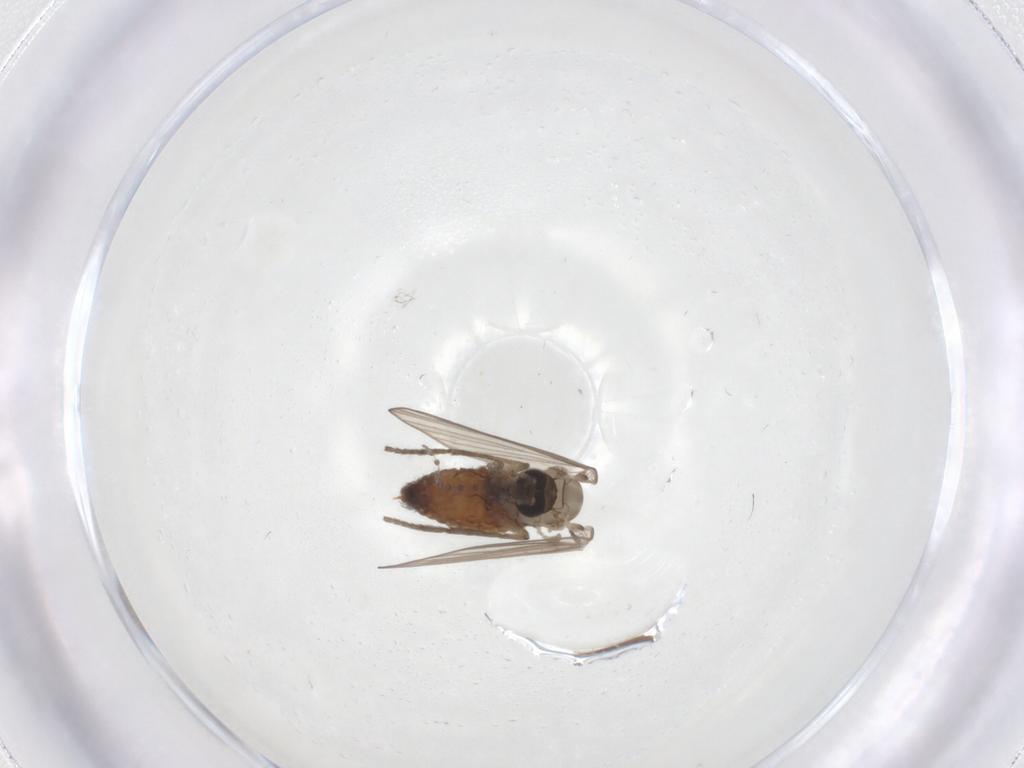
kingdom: Animalia
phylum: Arthropoda
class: Insecta
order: Diptera
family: Psychodidae
